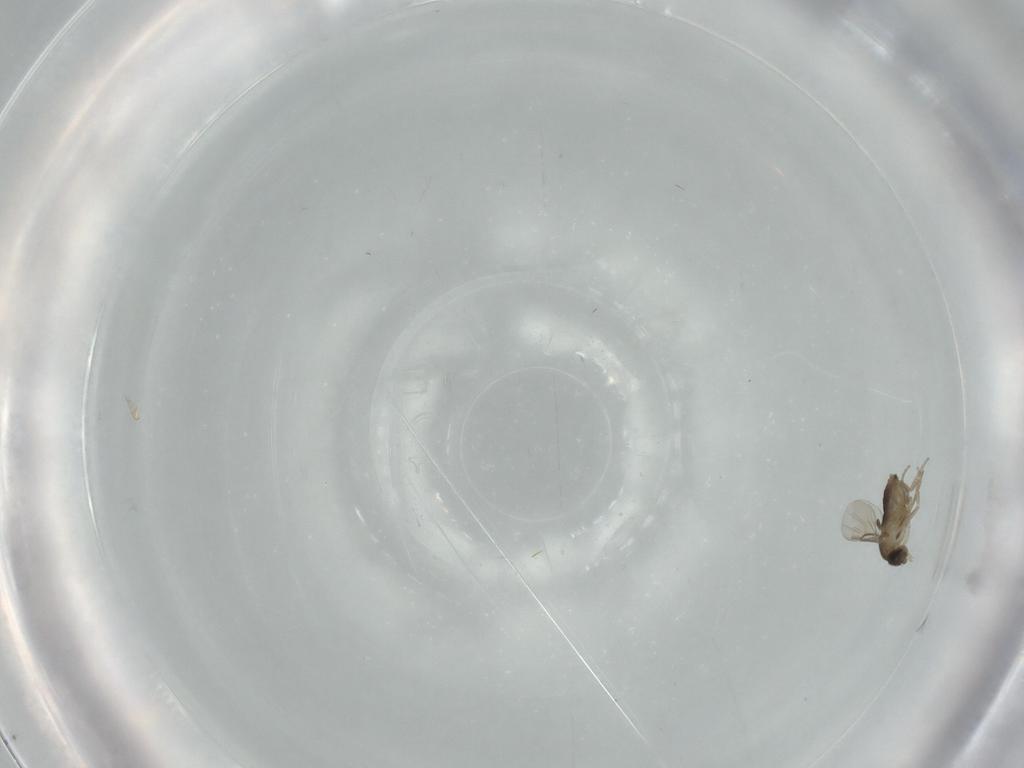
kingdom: Animalia
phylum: Arthropoda
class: Insecta
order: Diptera
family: Phoridae
